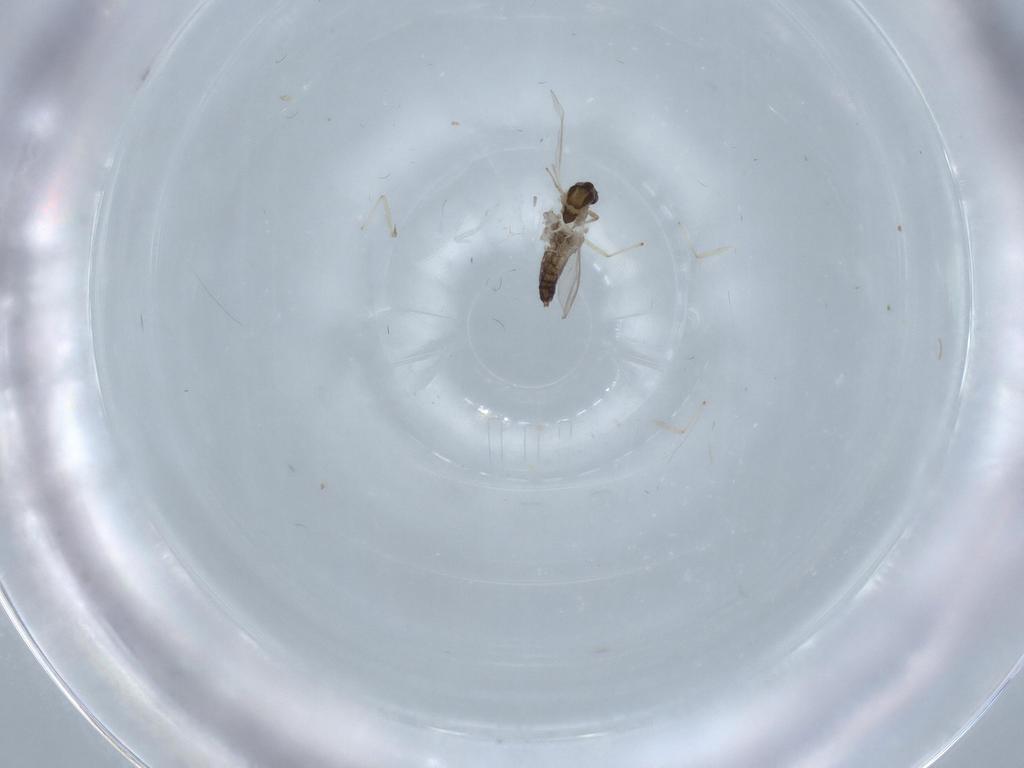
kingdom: Animalia
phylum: Arthropoda
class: Insecta
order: Diptera
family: Chironomidae
